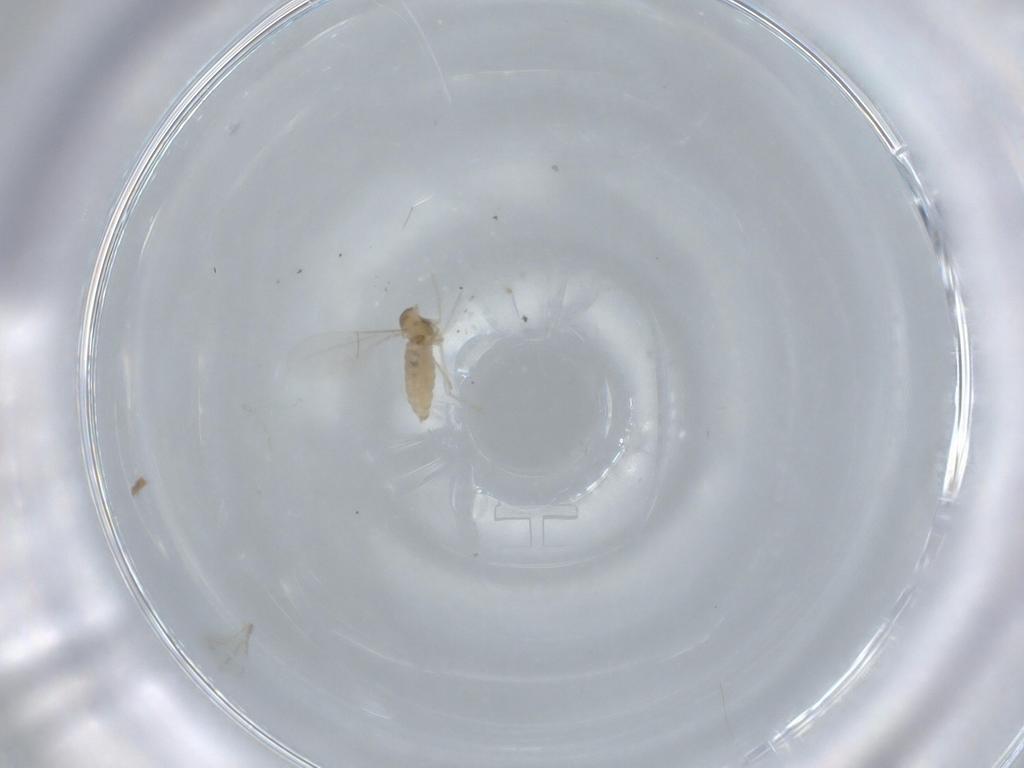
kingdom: Animalia
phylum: Arthropoda
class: Insecta
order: Diptera
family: Cecidomyiidae
